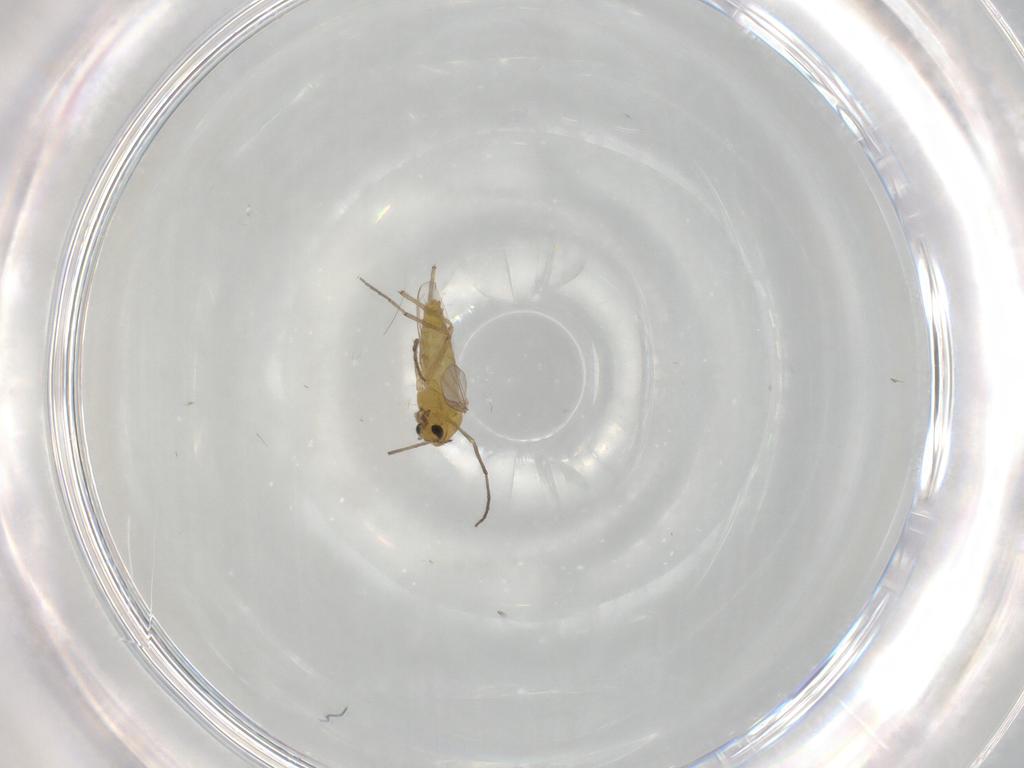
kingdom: Animalia
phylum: Arthropoda
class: Insecta
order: Diptera
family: Chironomidae
